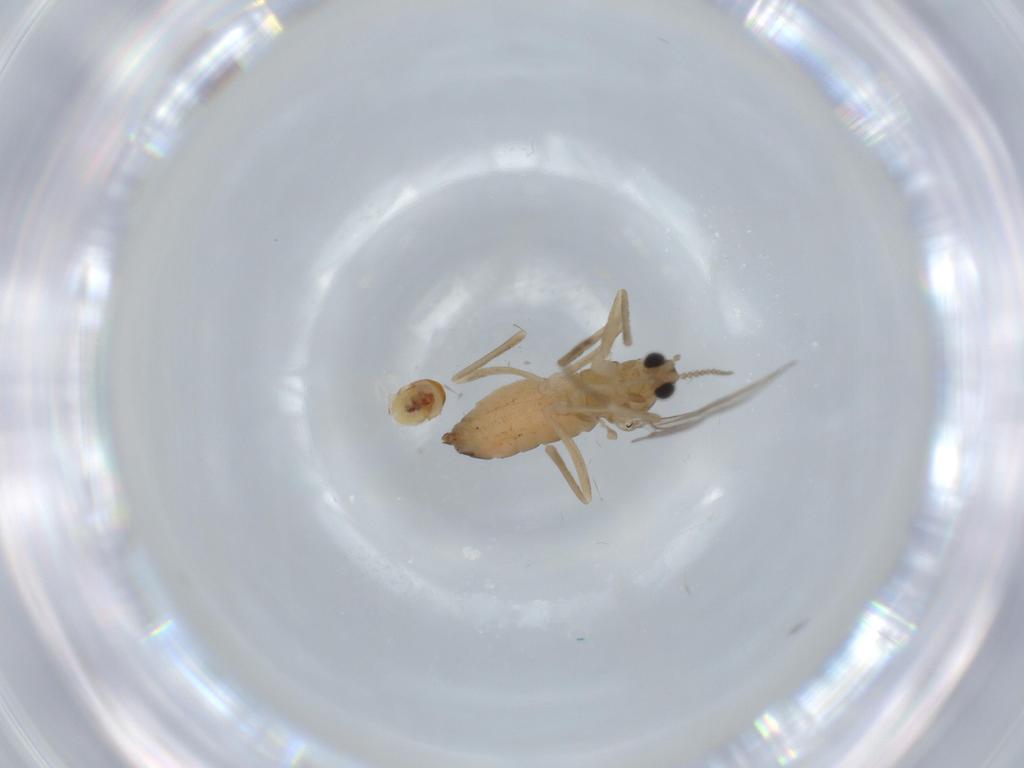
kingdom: Animalia
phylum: Arthropoda
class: Insecta
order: Diptera
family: Cecidomyiidae
